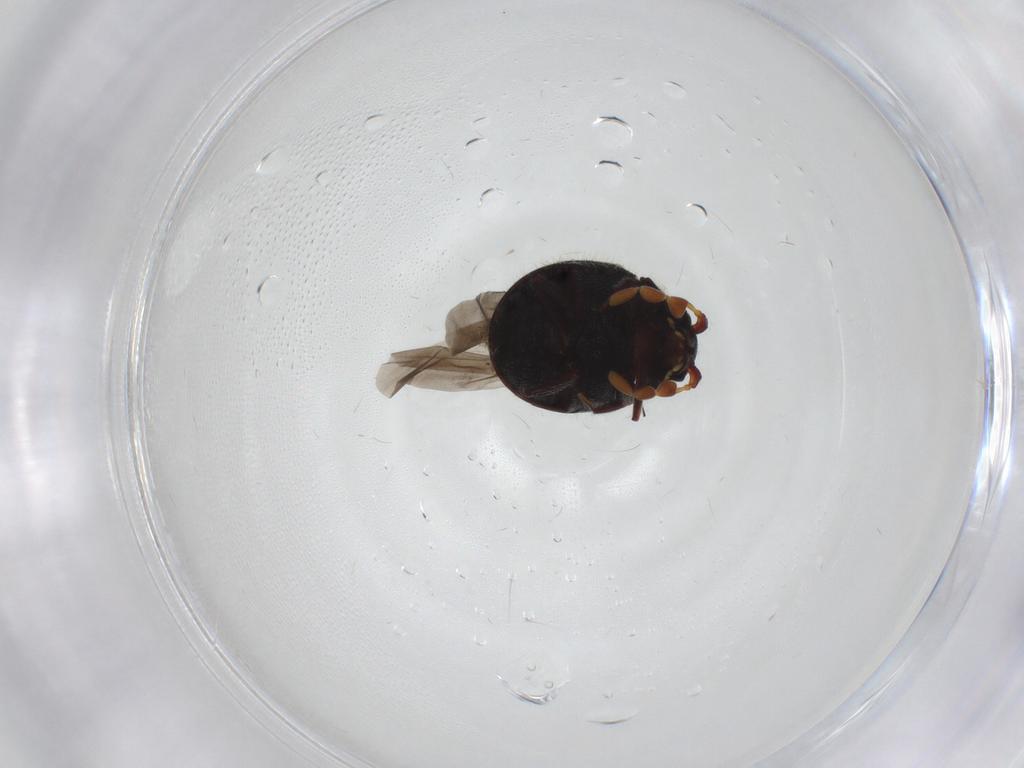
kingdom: Animalia
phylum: Arthropoda
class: Insecta
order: Coleoptera
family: Ptinidae
